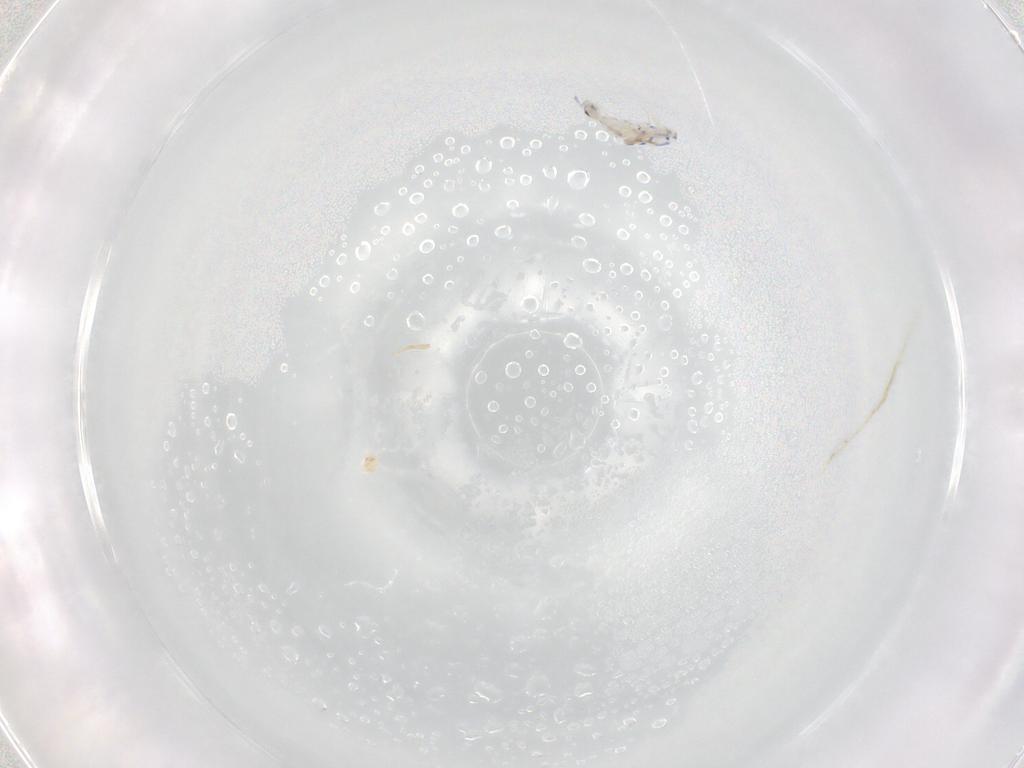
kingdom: Animalia
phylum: Arthropoda
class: Collembola
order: Entomobryomorpha
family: Entomobryidae
